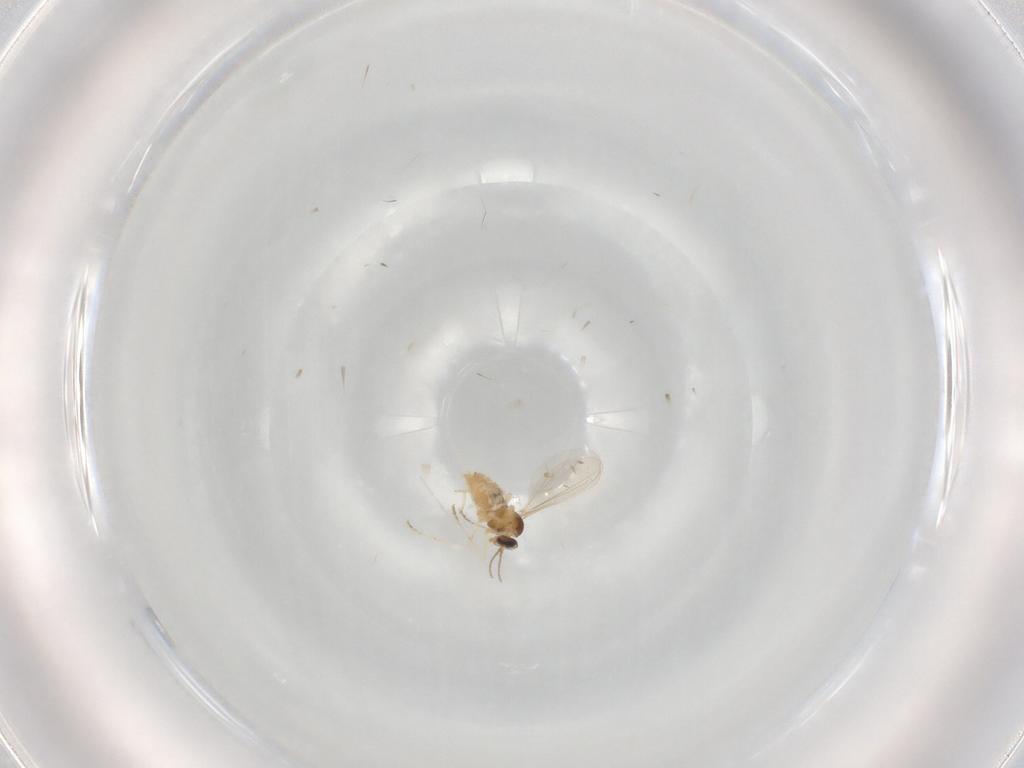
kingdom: Animalia
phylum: Arthropoda
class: Insecta
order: Diptera
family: Cecidomyiidae
